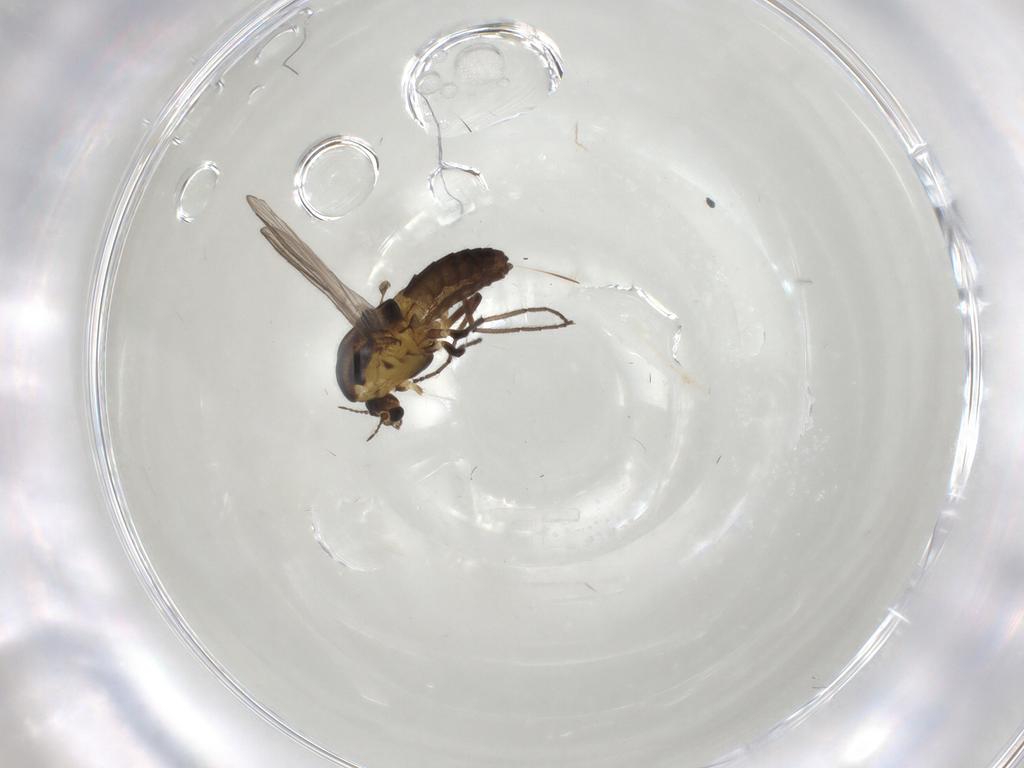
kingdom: Animalia
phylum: Arthropoda
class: Insecta
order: Diptera
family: Chironomidae
